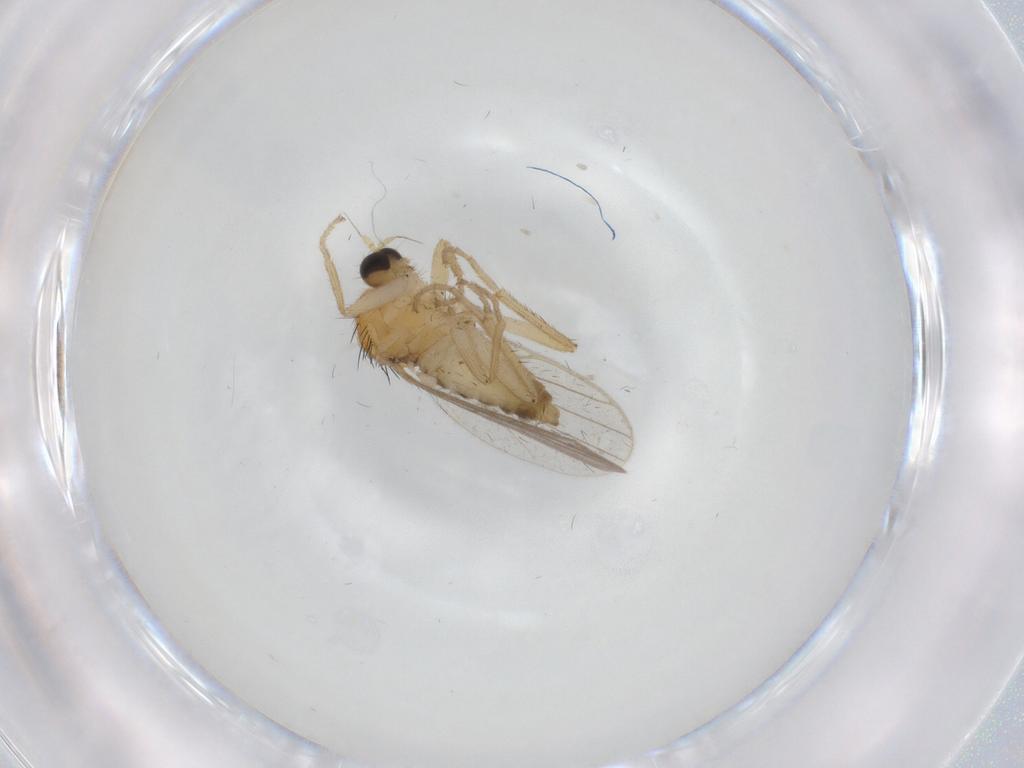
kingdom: Animalia
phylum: Arthropoda
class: Insecta
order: Diptera
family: Hybotidae
